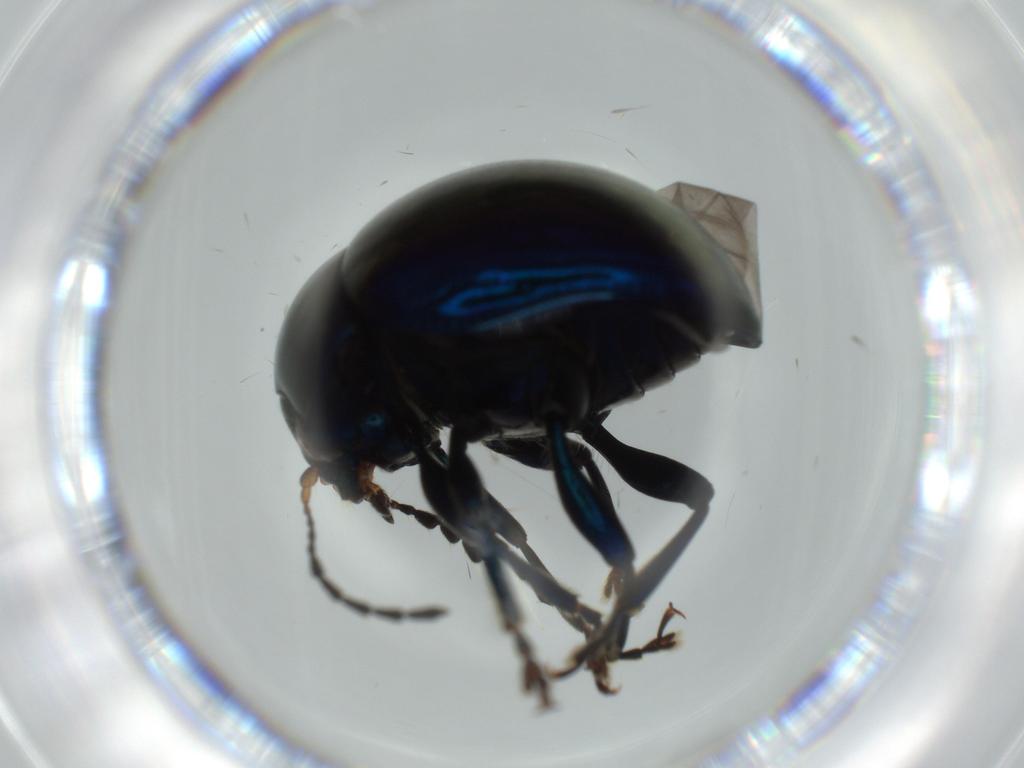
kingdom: Animalia
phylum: Arthropoda
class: Insecta
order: Coleoptera
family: Chrysomelidae
